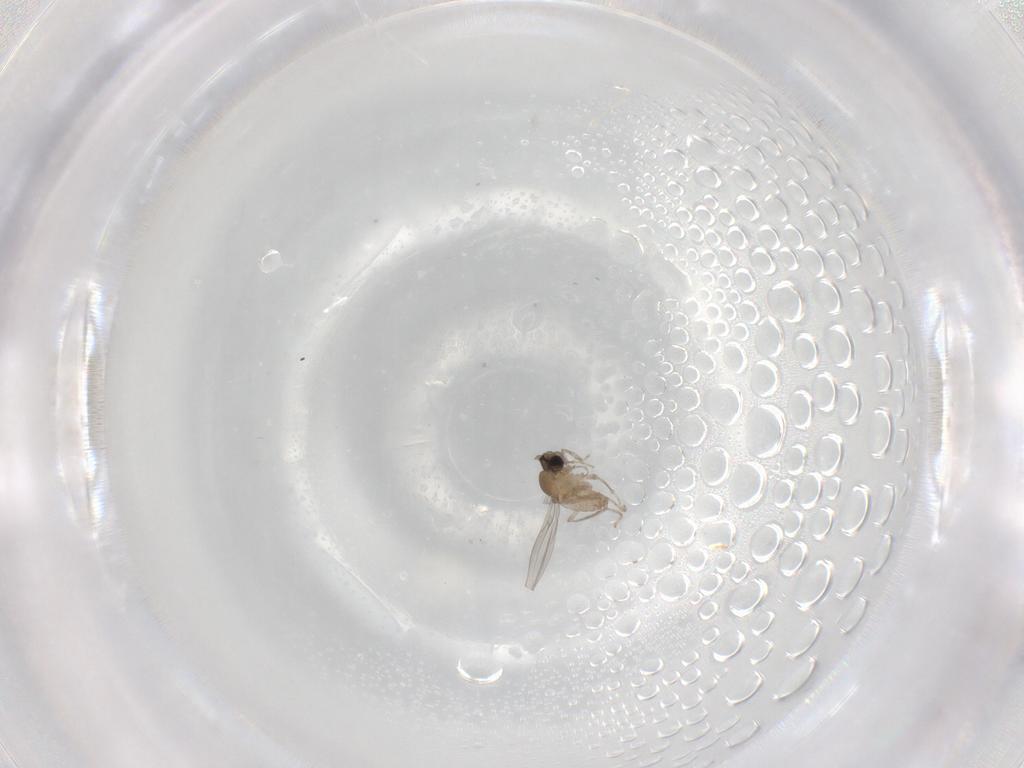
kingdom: Animalia
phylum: Arthropoda
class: Insecta
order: Diptera
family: Cecidomyiidae
